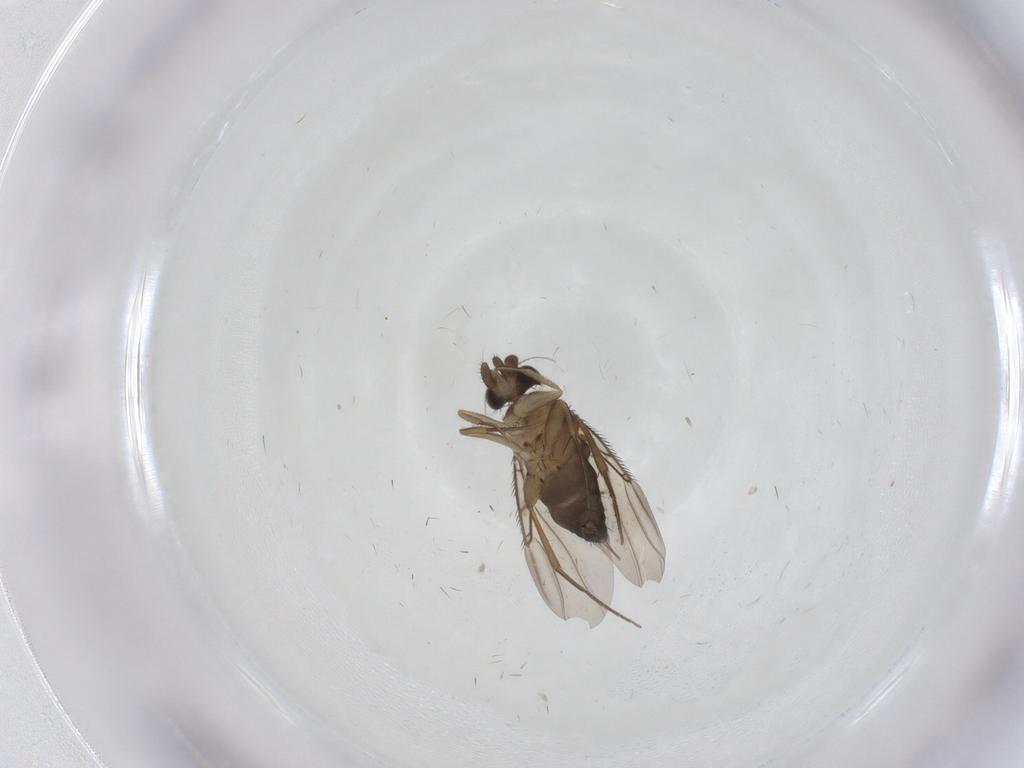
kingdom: Animalia
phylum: Arthropoda
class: Insecta
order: Diptera
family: Phoridae
